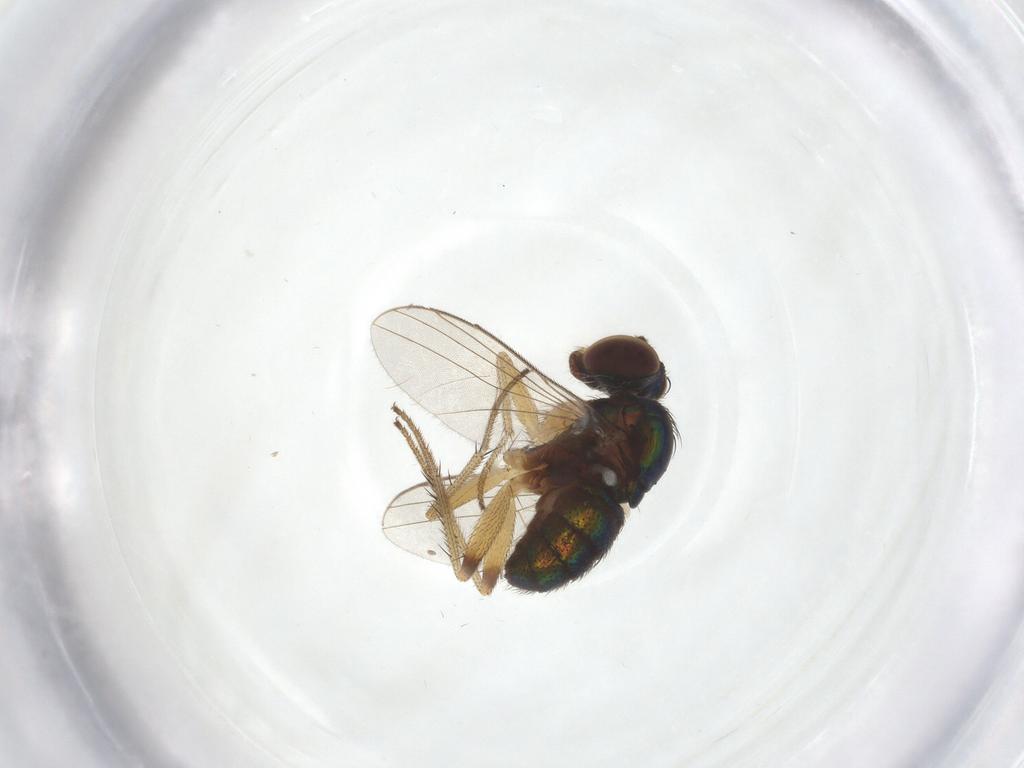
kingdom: Animalia
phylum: Arthropoda
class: Insecta
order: Diptera
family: Dolichopodidae
